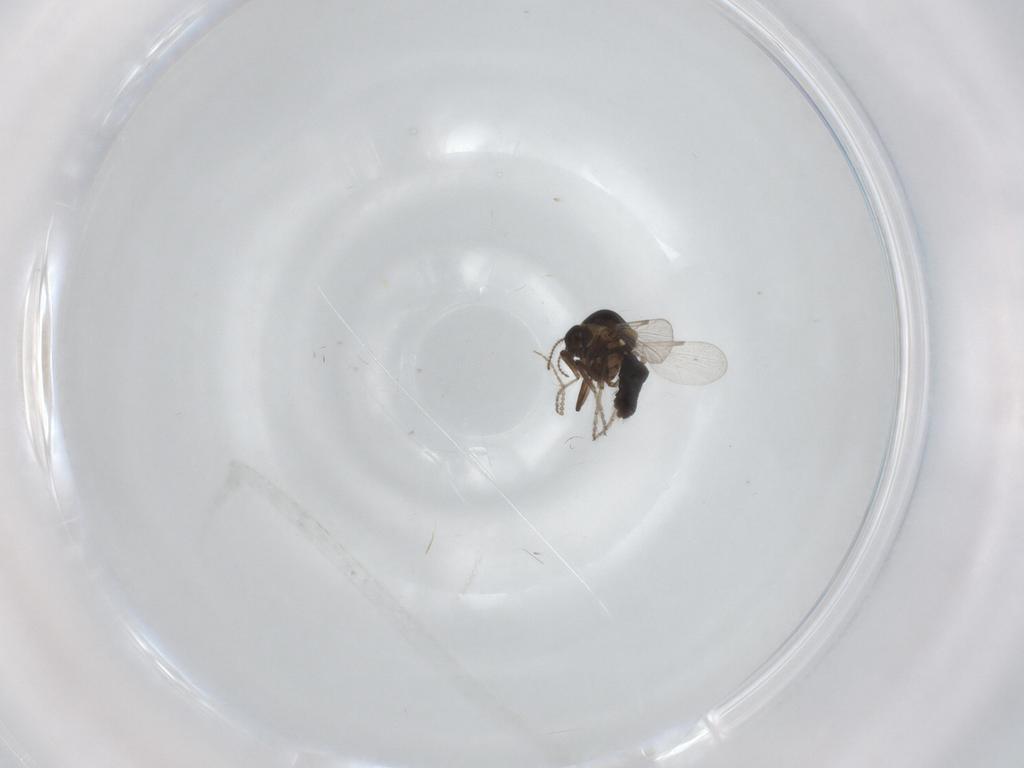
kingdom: Animalia
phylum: Arthropoda
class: Insecta
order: Diptera
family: Ceratopogonidae
